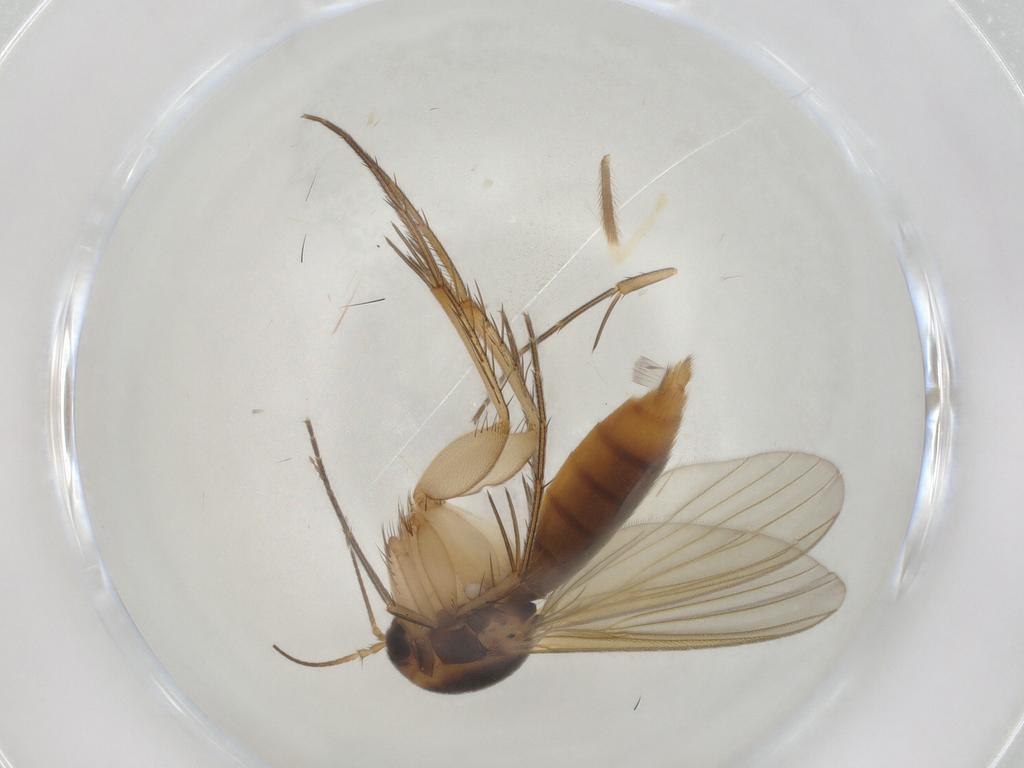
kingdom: Animalia
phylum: Arthropoda
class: Insecta
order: Diptera
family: Mycetophilidae
